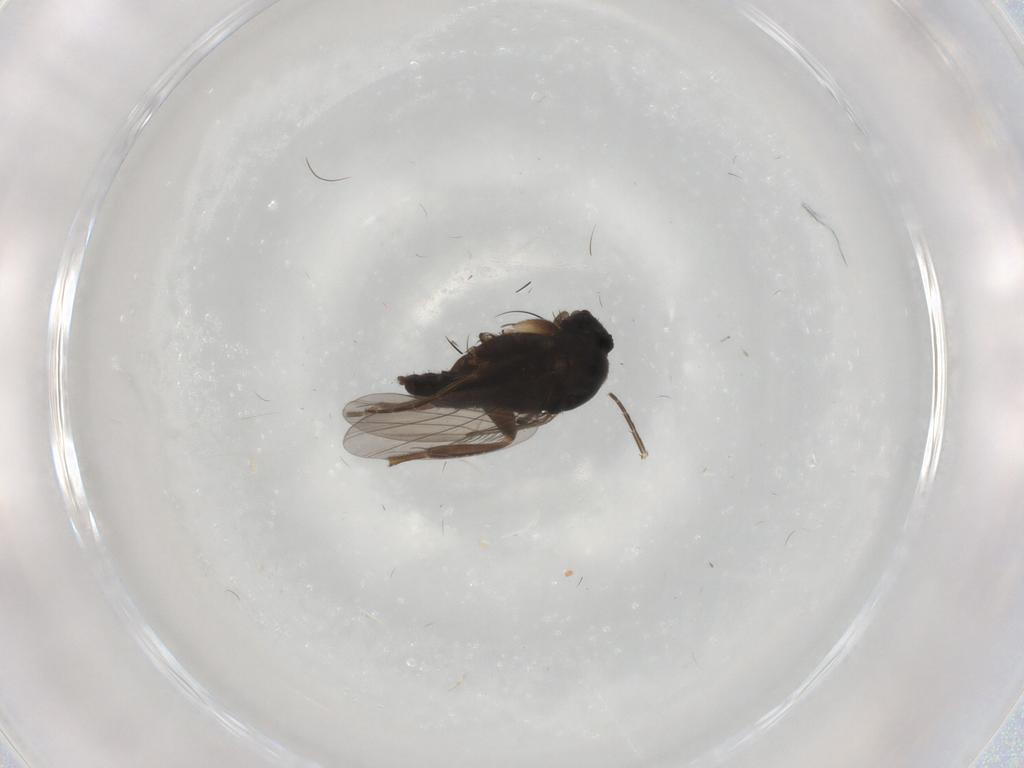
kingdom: Animalia
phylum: Arthropoda
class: Insecta
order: Diptera
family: Phoridae
